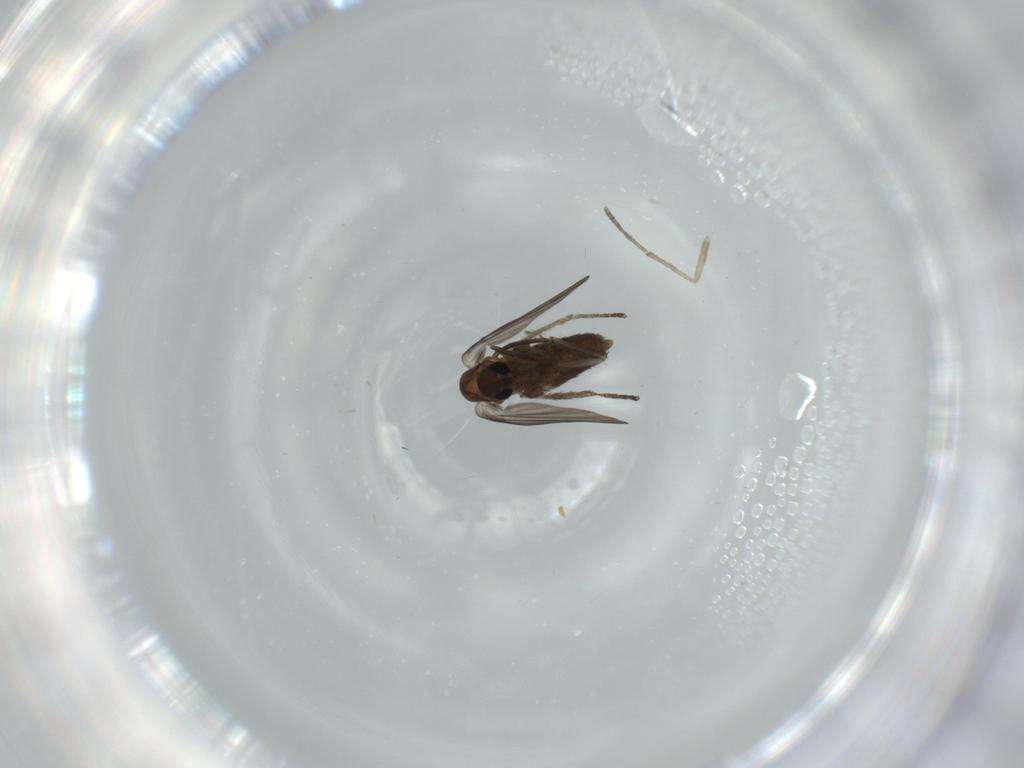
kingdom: Animalia
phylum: Arthropoda
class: Insecta
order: Diptera
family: Psychodidae
